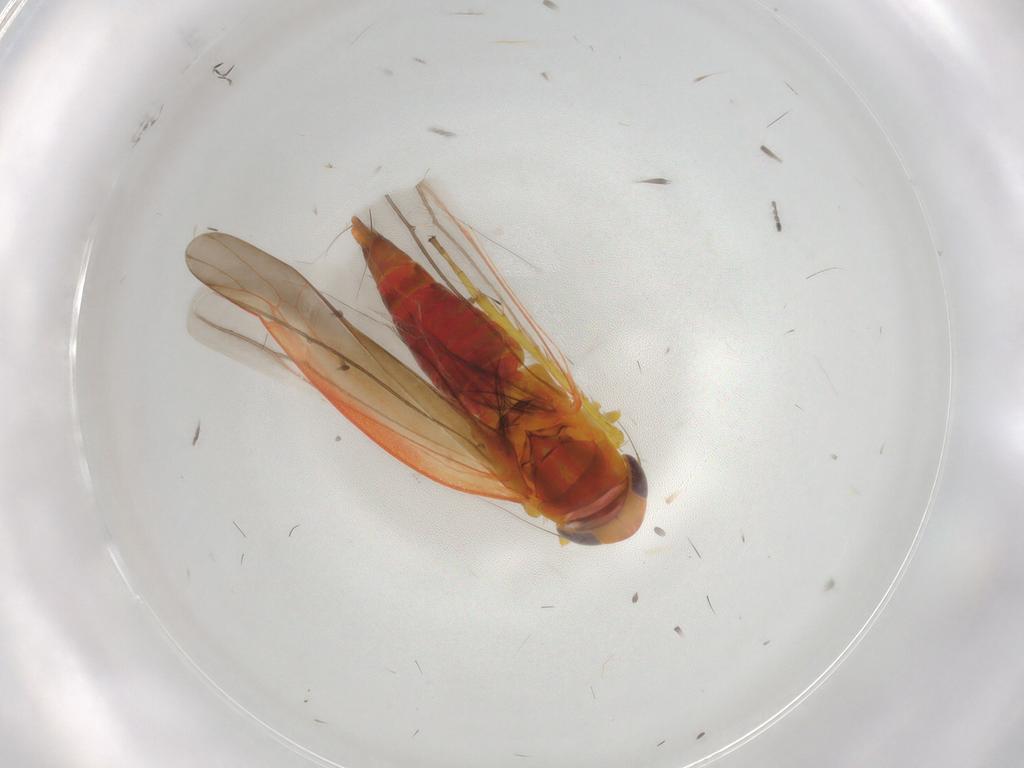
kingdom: Animalia
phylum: Arthropoda
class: Insecta
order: Hemiptera
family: Cicadellidae
